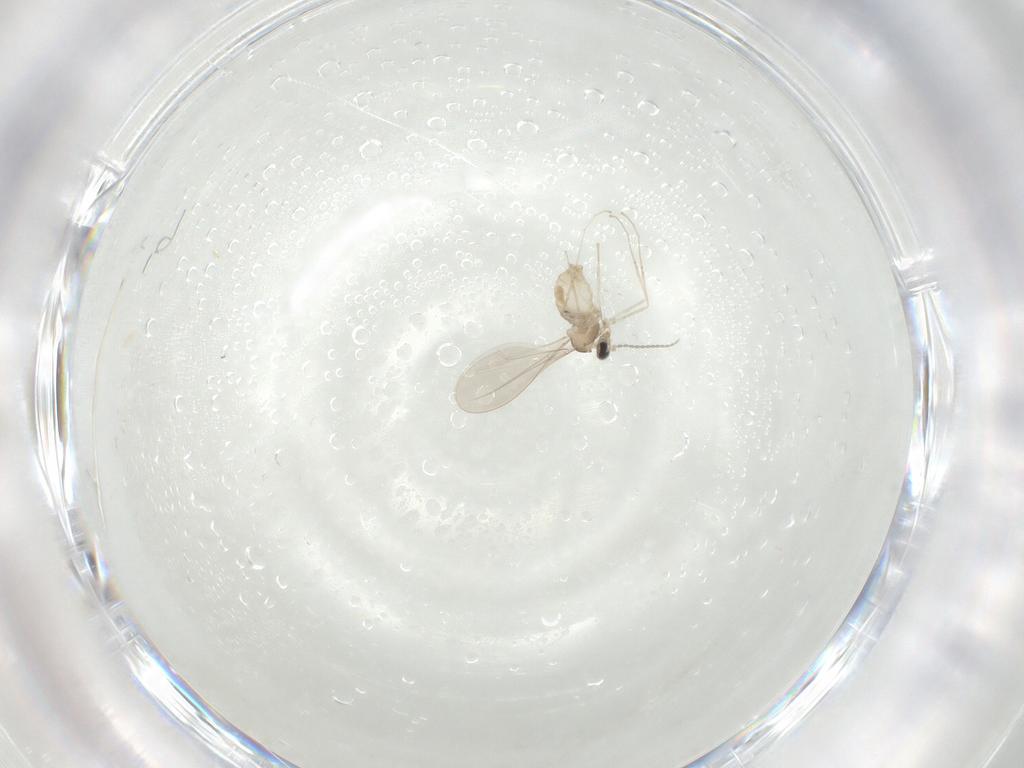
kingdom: Animalia
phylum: Arthropoda
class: Insecta
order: Diptera
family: Cecidomyiidae
